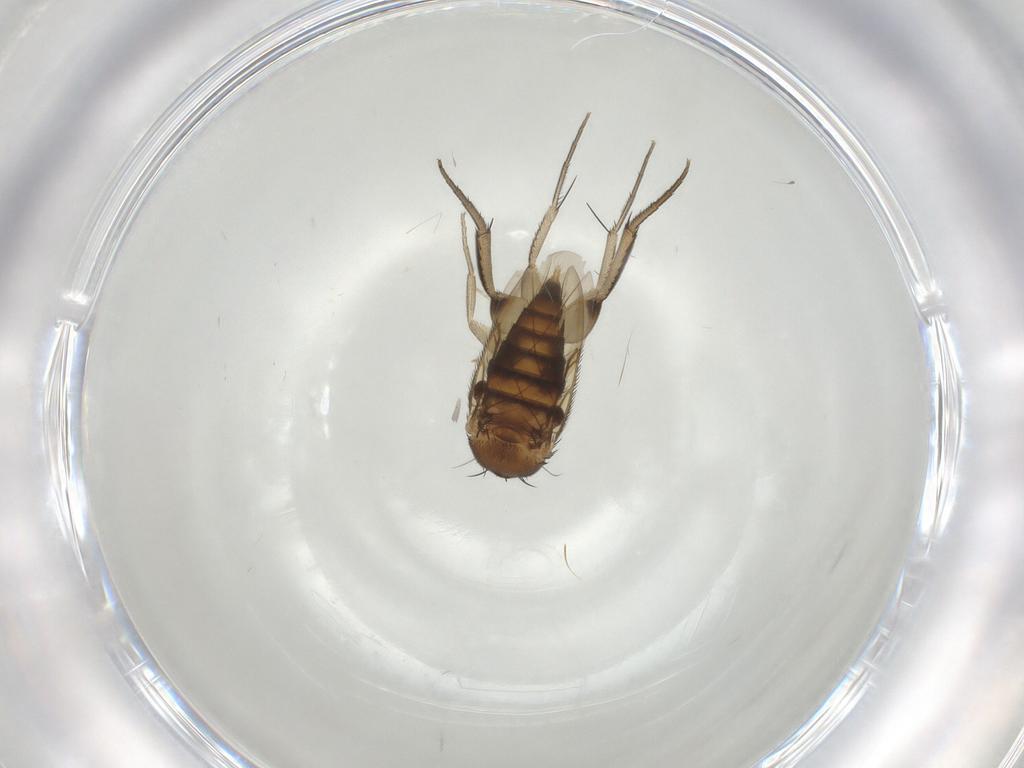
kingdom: Animalia
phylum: Arthropoda
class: Insecta
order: Diptera
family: Phoridae
